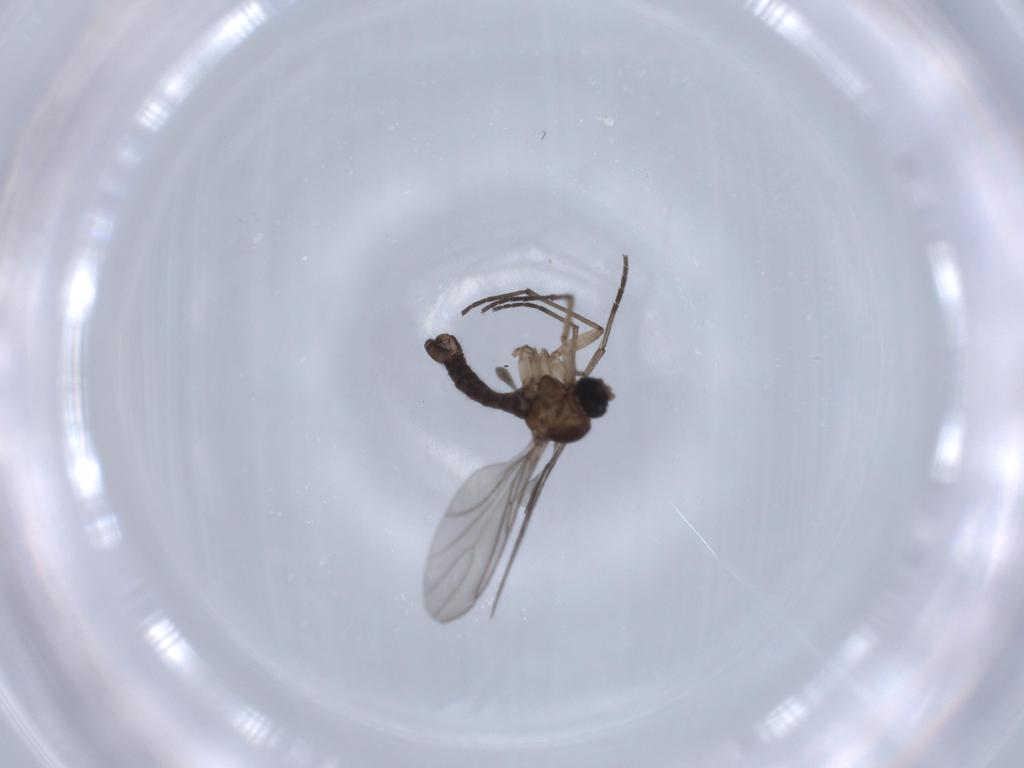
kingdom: Animalia
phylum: Arthropoda
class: Insecta
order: Diptera
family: Sciaridae
